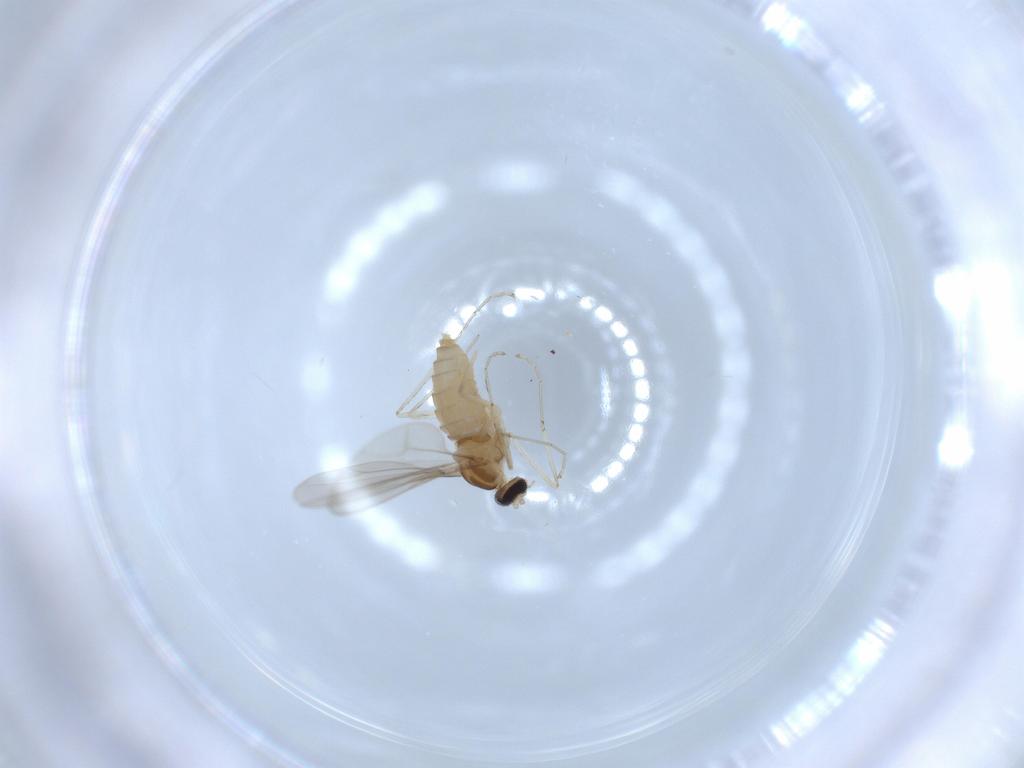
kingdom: Animalia
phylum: Arthropoda
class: Insecta
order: Diptera
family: Cecidomyiidae
